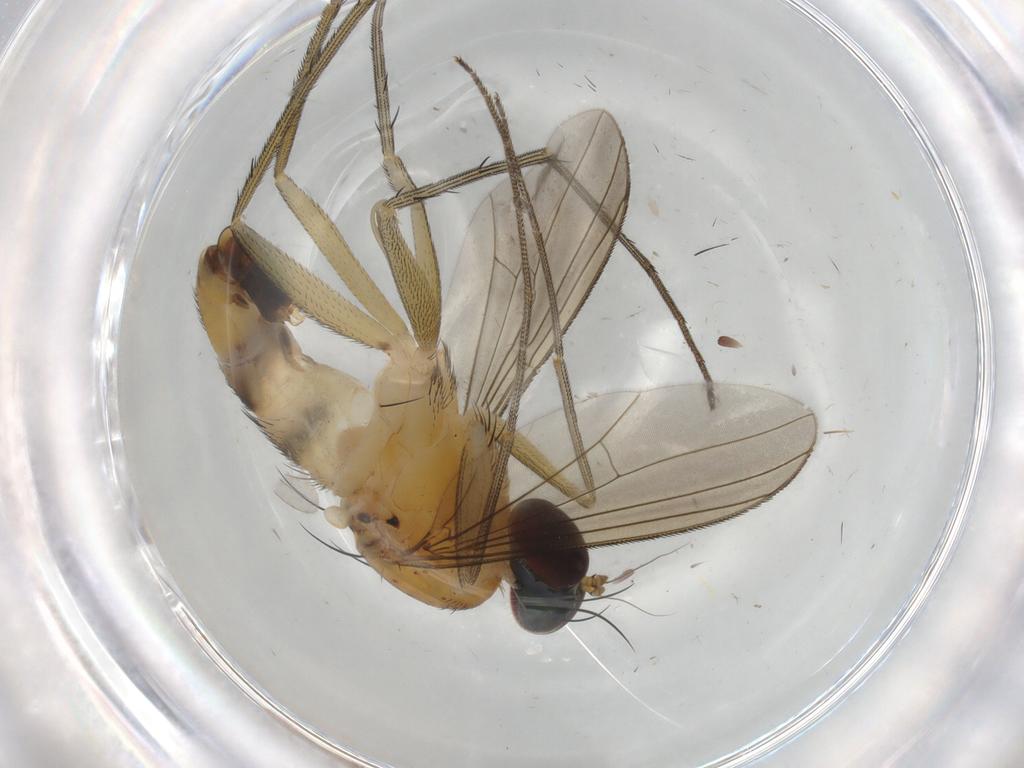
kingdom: Animalia
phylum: Arthropoda
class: Insecta
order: Diptera
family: Dolichopodidae
